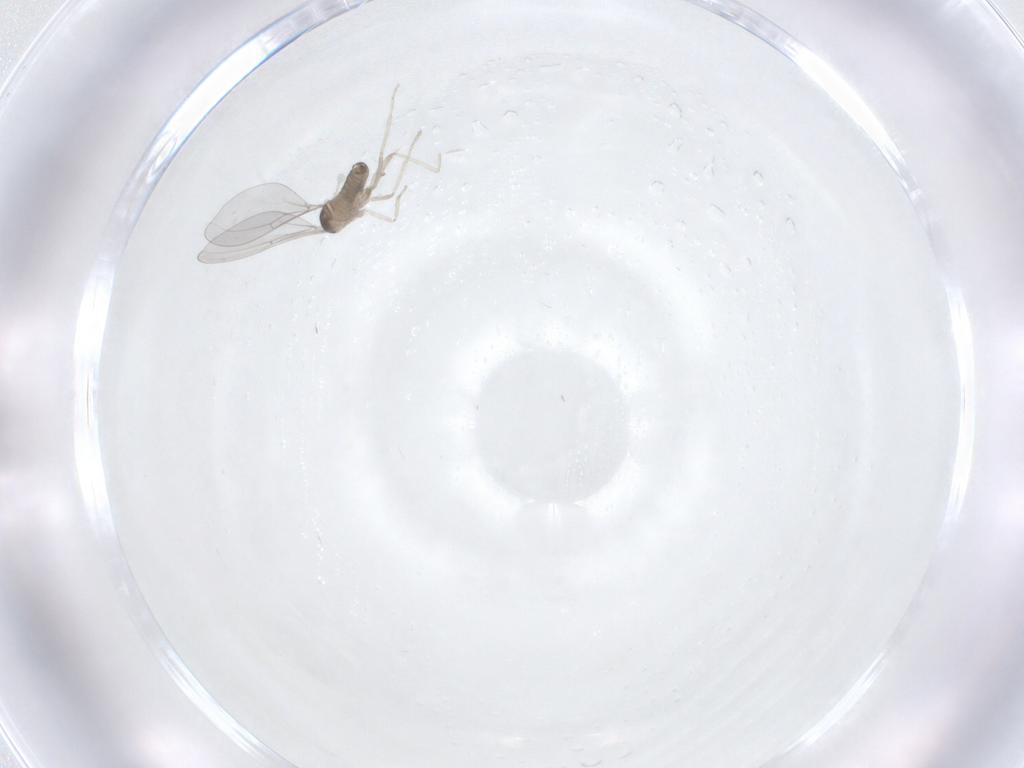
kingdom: Animalia
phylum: Arthropoda
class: Insecta
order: Diptera
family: Cecidomyiidae
